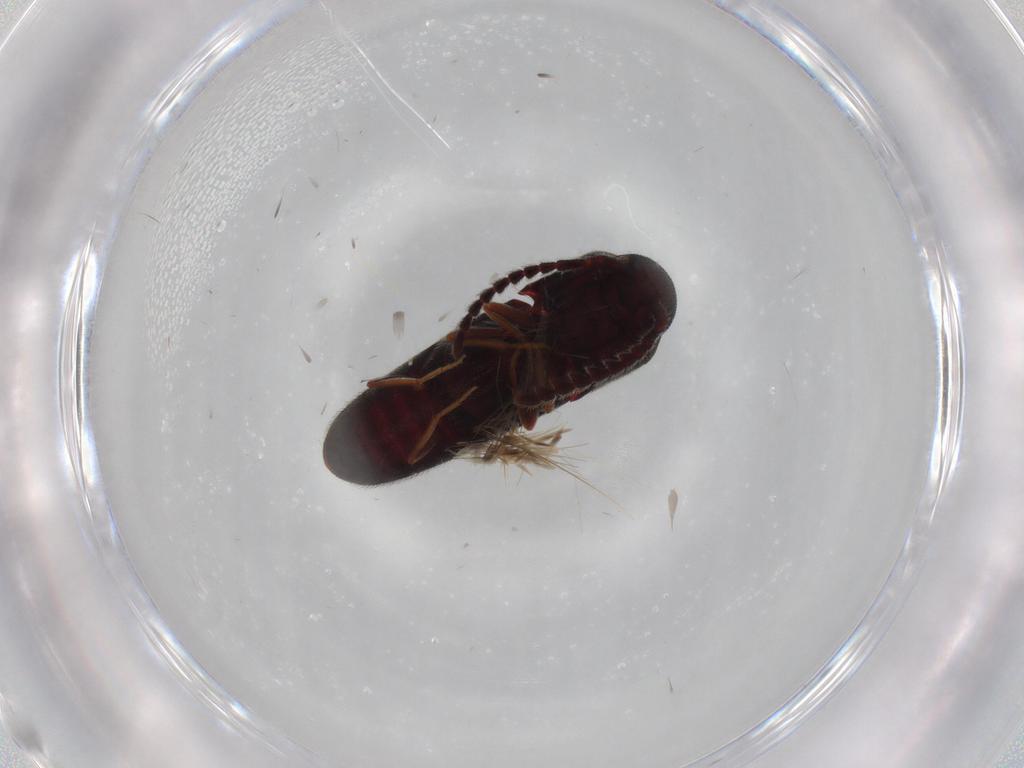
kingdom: Animalia
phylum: Arthropoda
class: Insecta
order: Coleoptera
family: Eucnemidae
